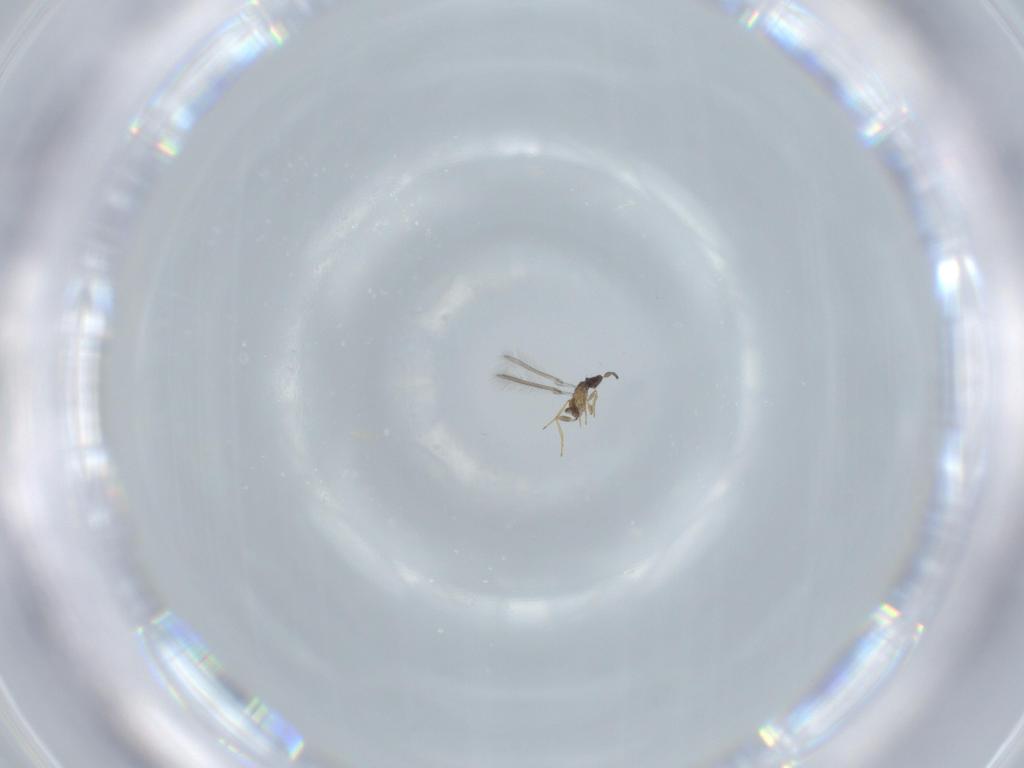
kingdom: Animalia
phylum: Arthropoda
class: Insecta
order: Hymenoptera
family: Mymaridae
